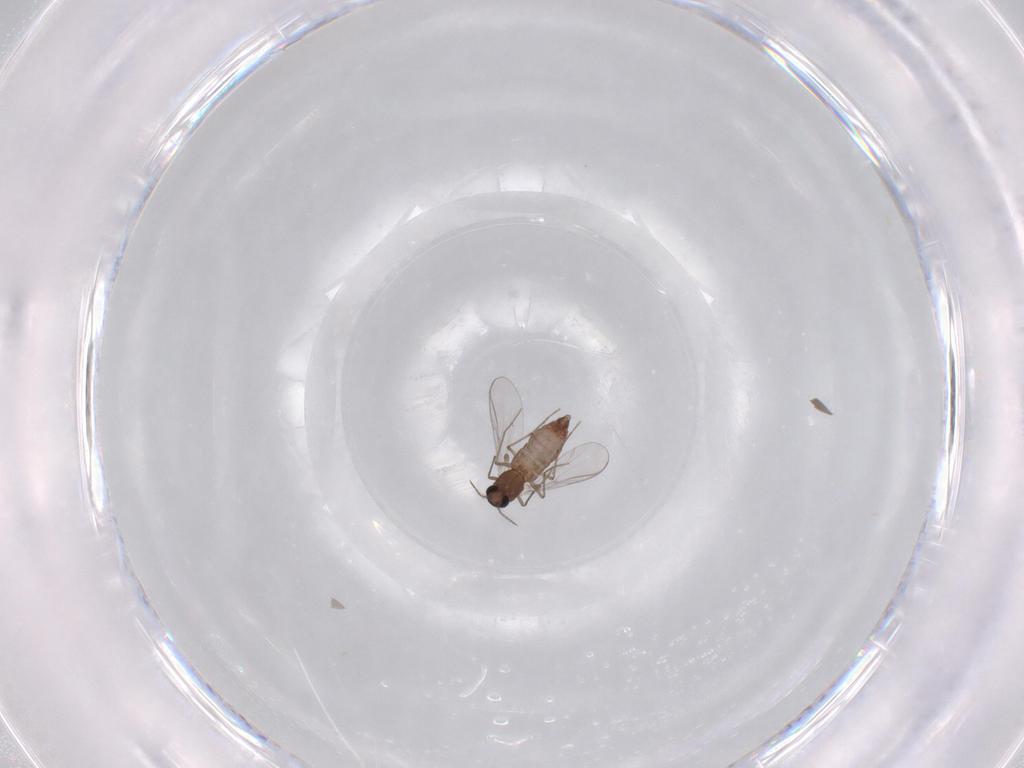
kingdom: Animalia
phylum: Arthropoda
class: Insecta
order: Diptera
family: Chironomidae
